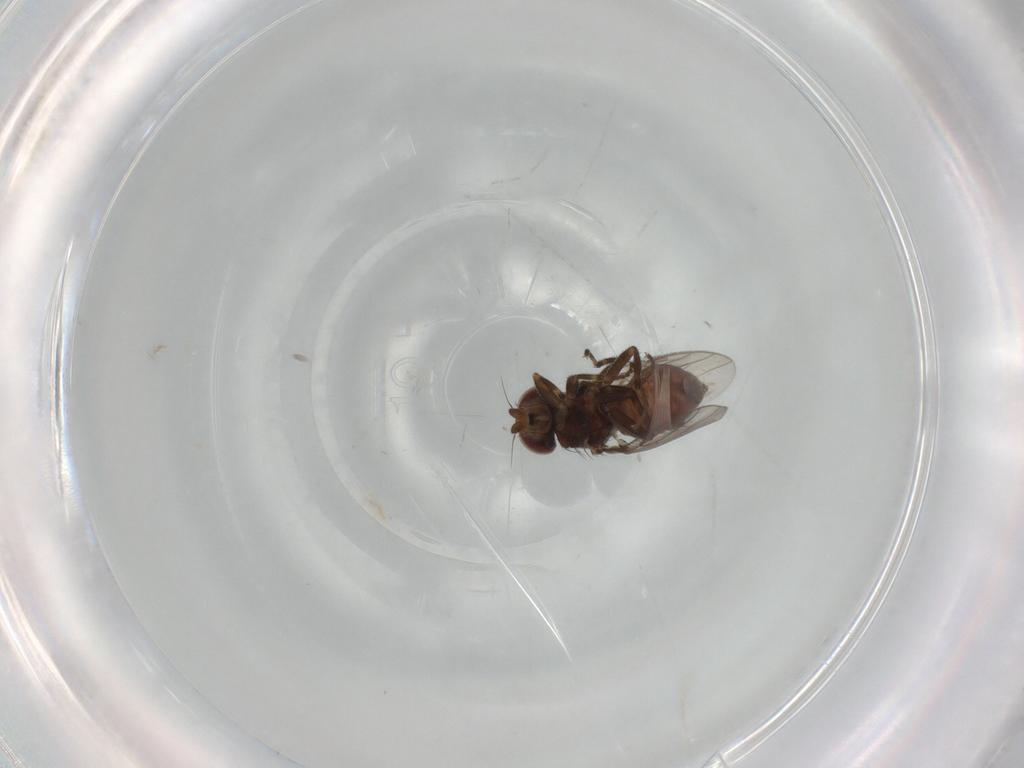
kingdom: Animalia
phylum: Arthropoda
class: Insecta
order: Diptera
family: Chloropidae
